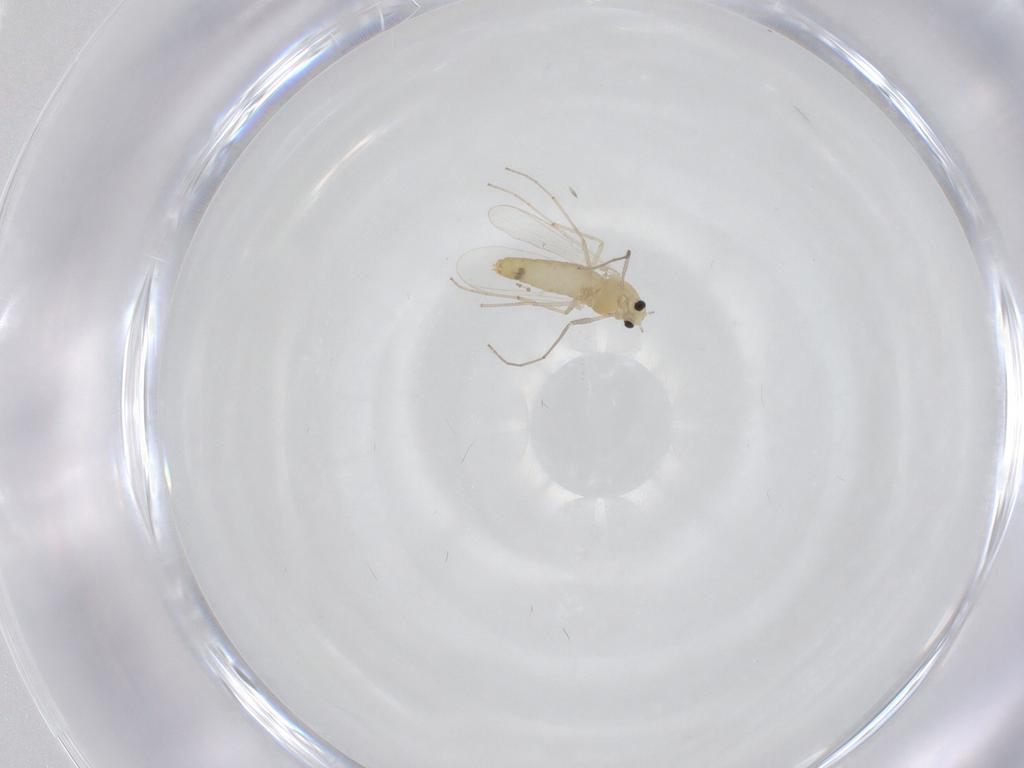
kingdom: Animalia
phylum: Arthropoda
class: Insecta
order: Diptera
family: Chironomidae
